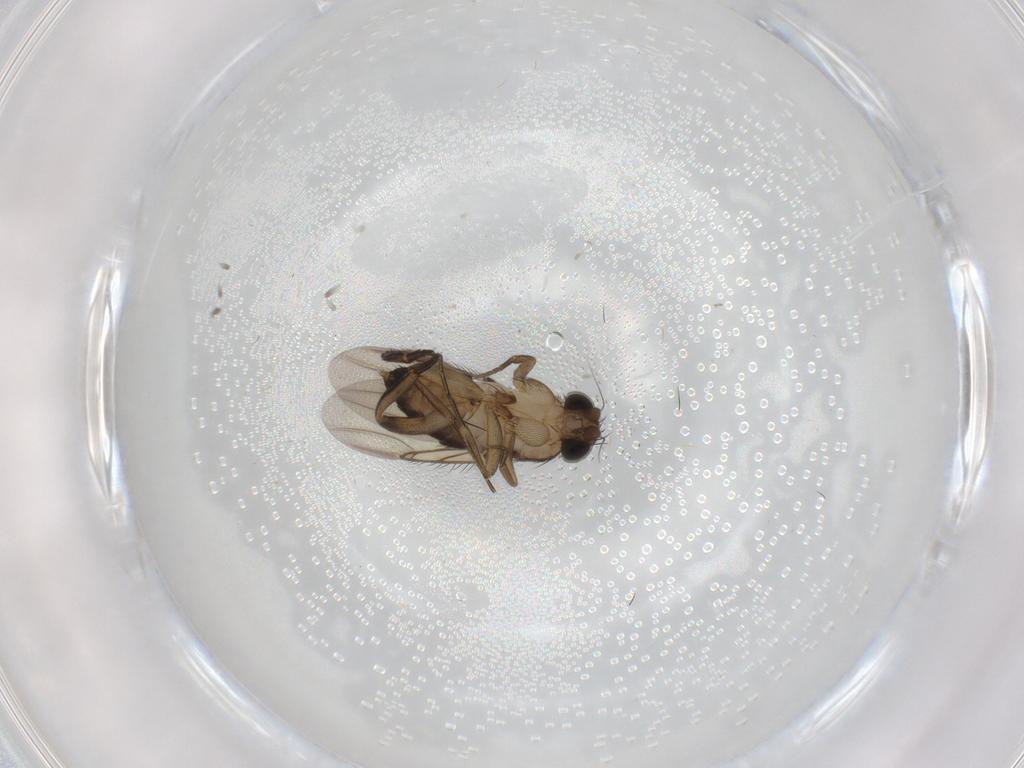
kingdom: Animalia
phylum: Arthropoda
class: Insecta
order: Diptera
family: Phoridae
